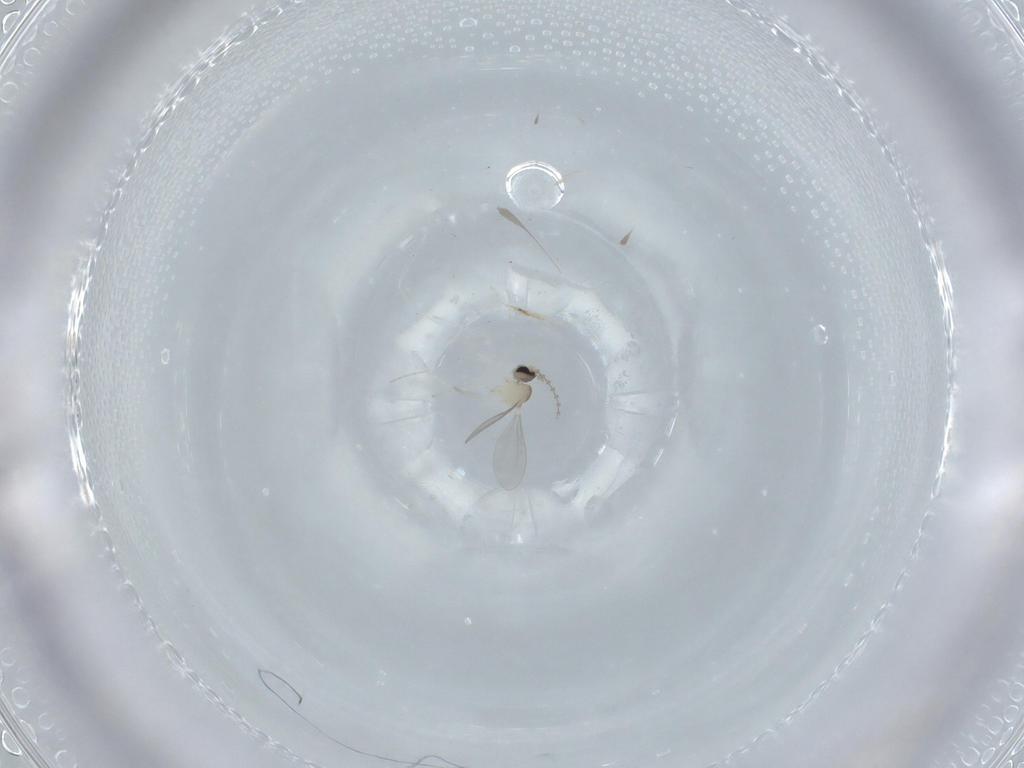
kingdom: Animalia
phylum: Arthropoda
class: Insecta
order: Diptera
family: Cecidomyiidae
